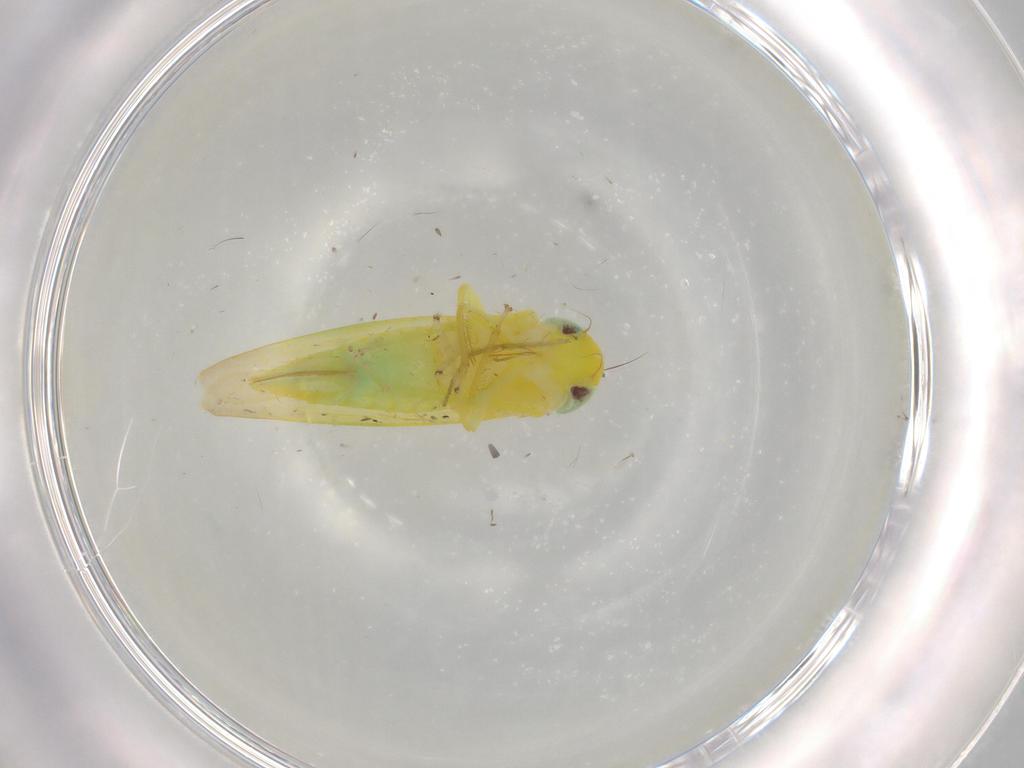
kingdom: Animalia
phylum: Arthropoda
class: Insecta
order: Hemiptera
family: Cicadellidae
